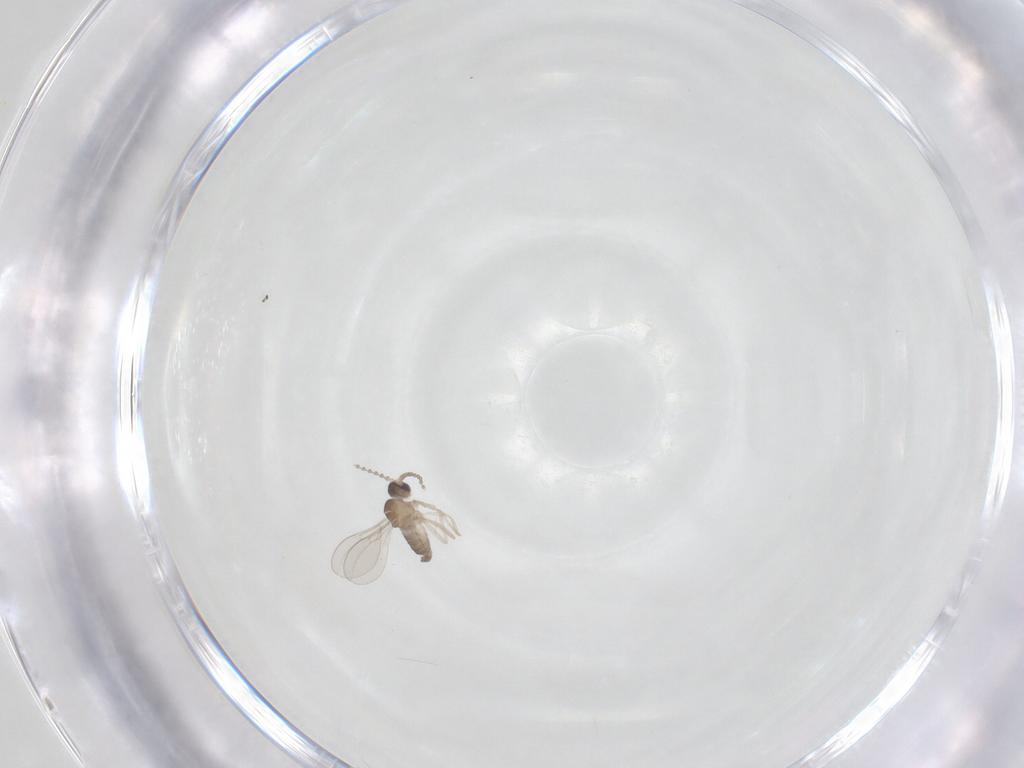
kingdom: Animalia
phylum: Arthropoda
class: Insecta
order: Diptera
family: Cecidomyiidae
